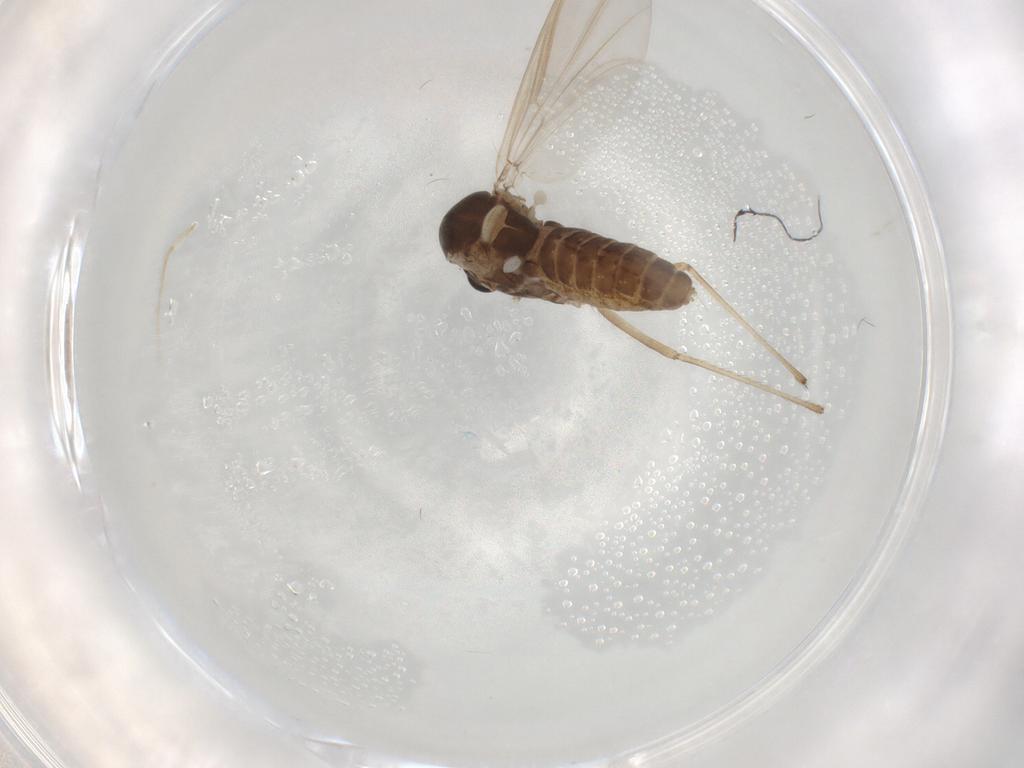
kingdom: Animalia
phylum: Arthropoda
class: Insecta
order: Diptera
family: Chironomidae
